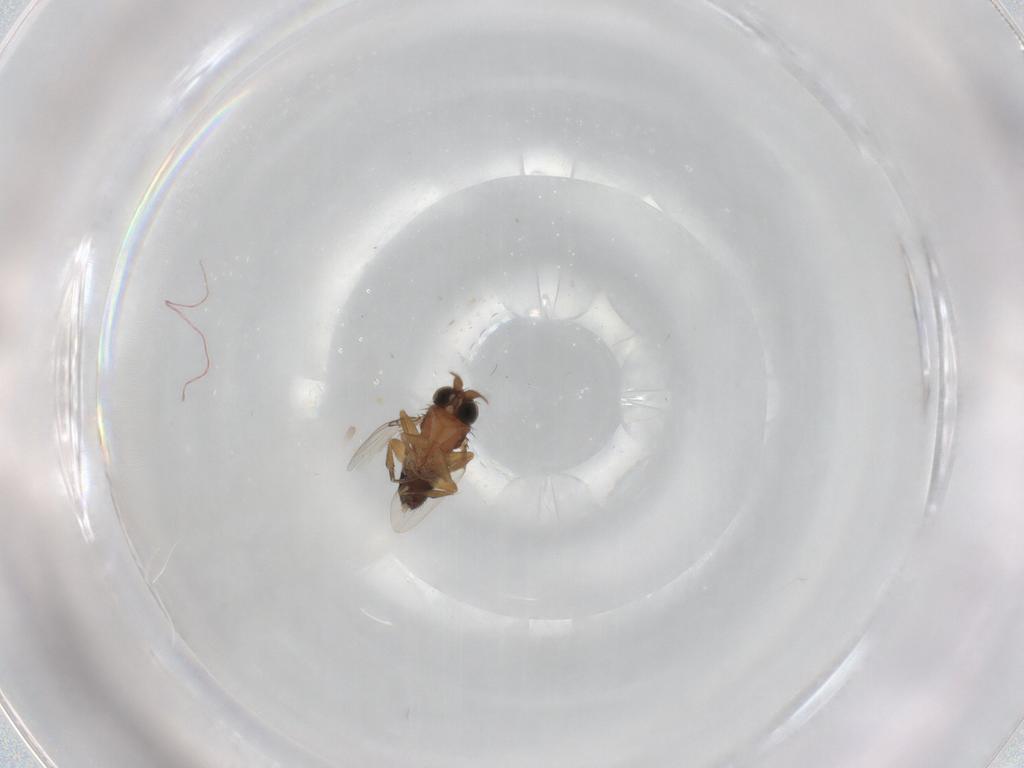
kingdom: Animalia
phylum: Arthropoda
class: Insecta
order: Diptera
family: Phoridae
